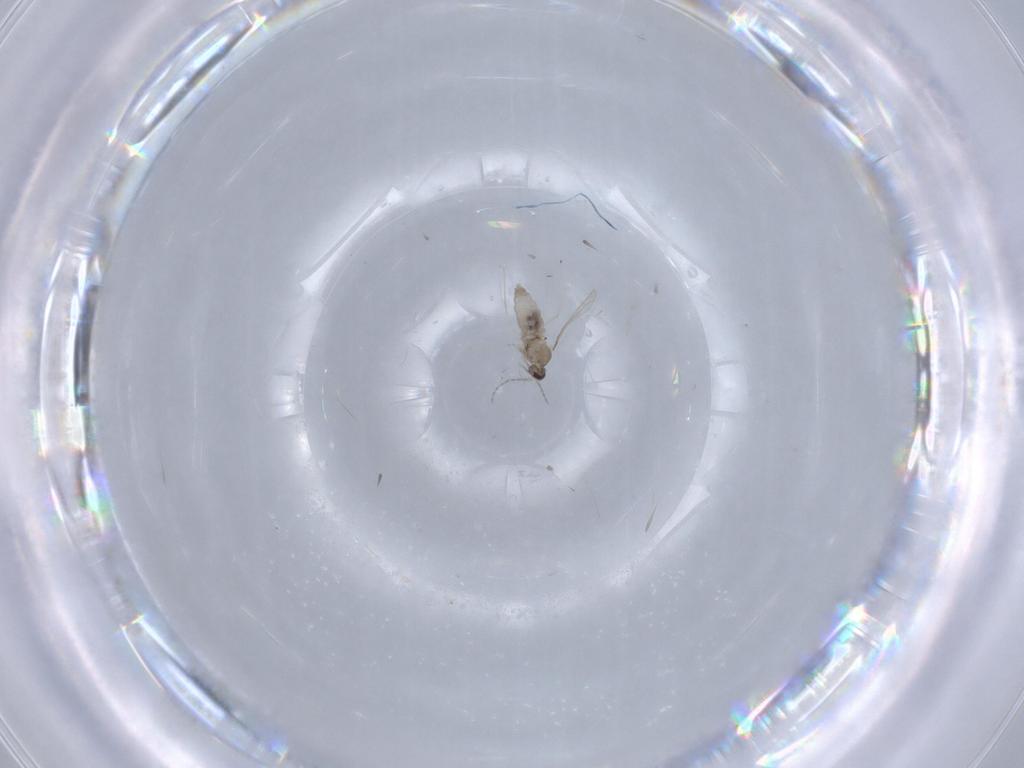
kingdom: Animalia
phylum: Arthropoda
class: Insecta
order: Diptera
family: Cecidomyiidae
